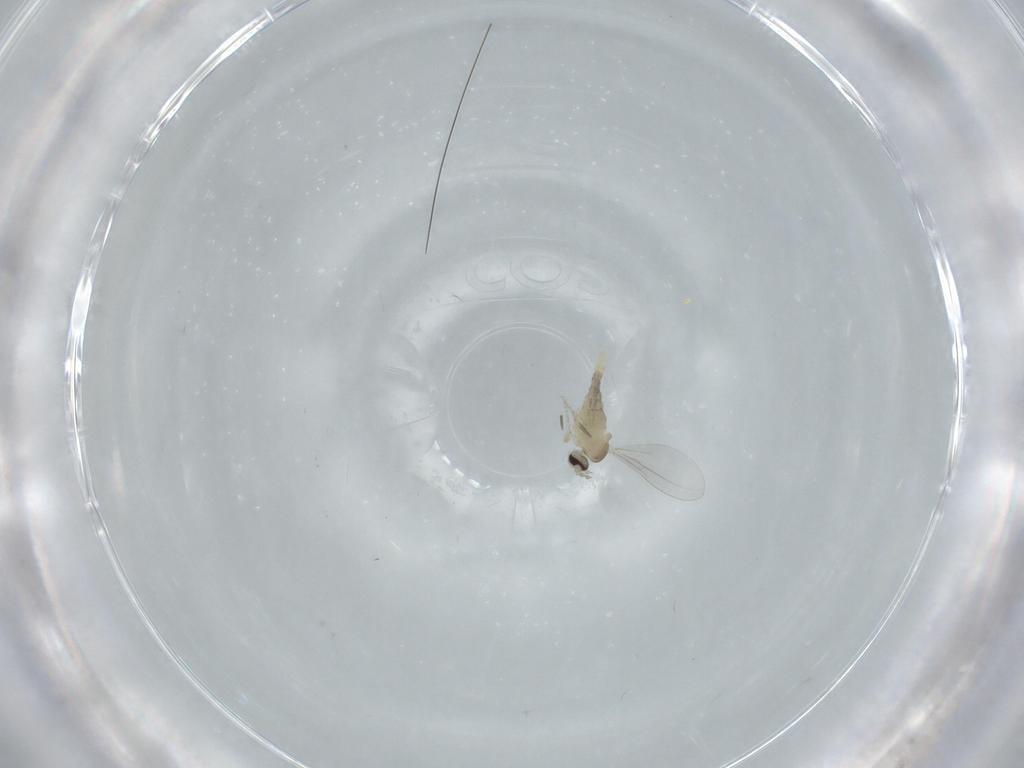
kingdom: Animalia
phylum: Arthropoda
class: Insecta
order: Diptera
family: Cecidomyiidae
